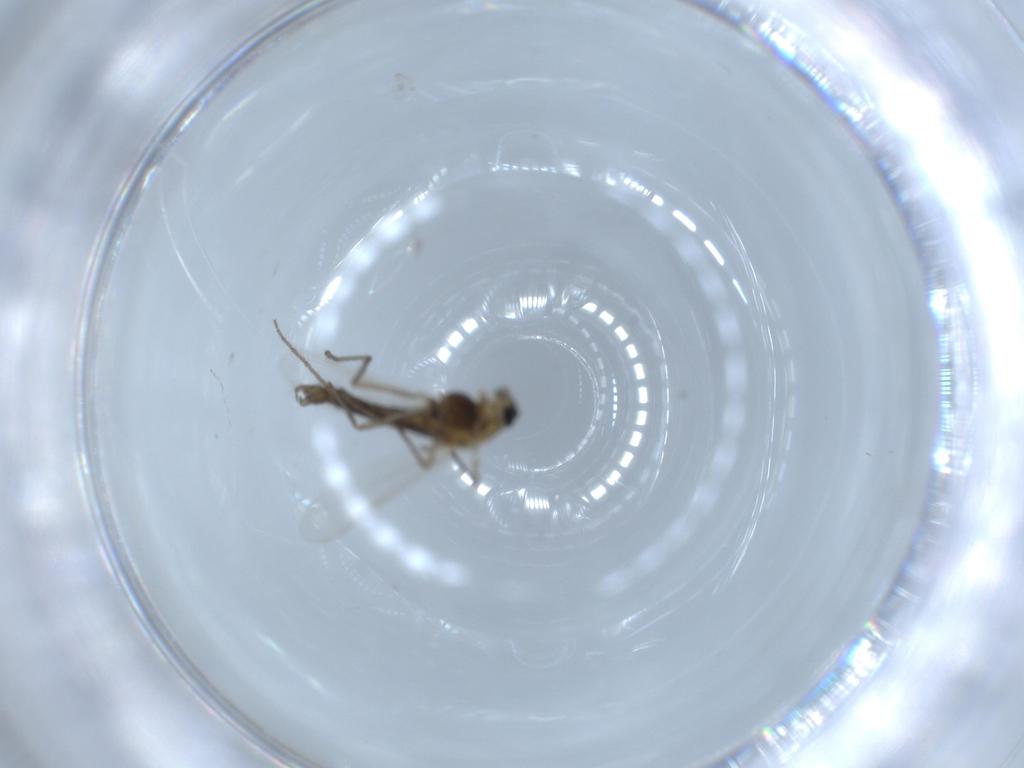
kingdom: Animalia
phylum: Arthropoda
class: Insecta
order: Diptera
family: Chironomidae
